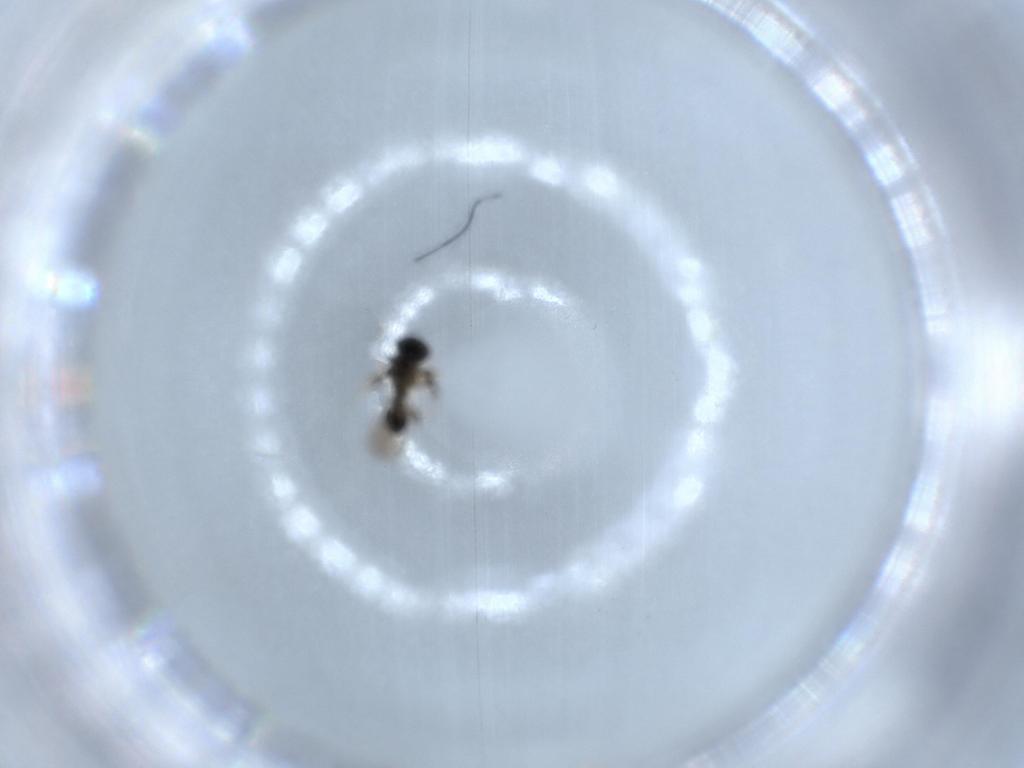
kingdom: Animalia
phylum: Arthropoda
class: Insecta
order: Hymenoptera
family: Platygastridae
